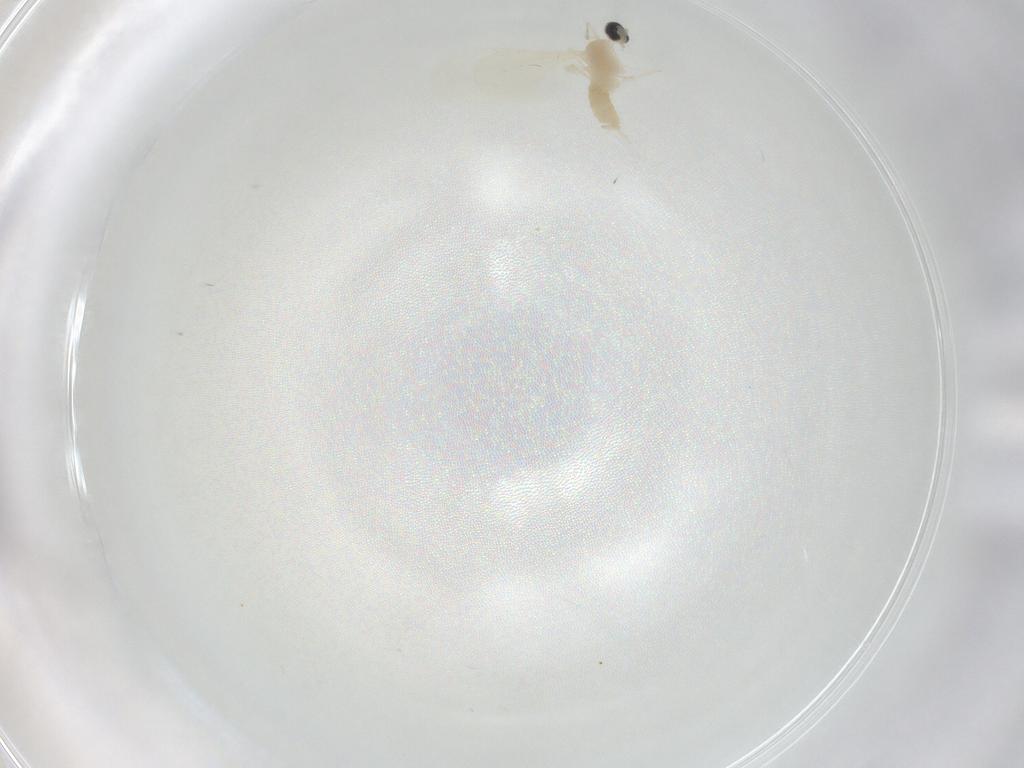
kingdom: Animalia
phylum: Arthropoda
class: Insecta
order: Diptera
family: Cecidomyiidae
